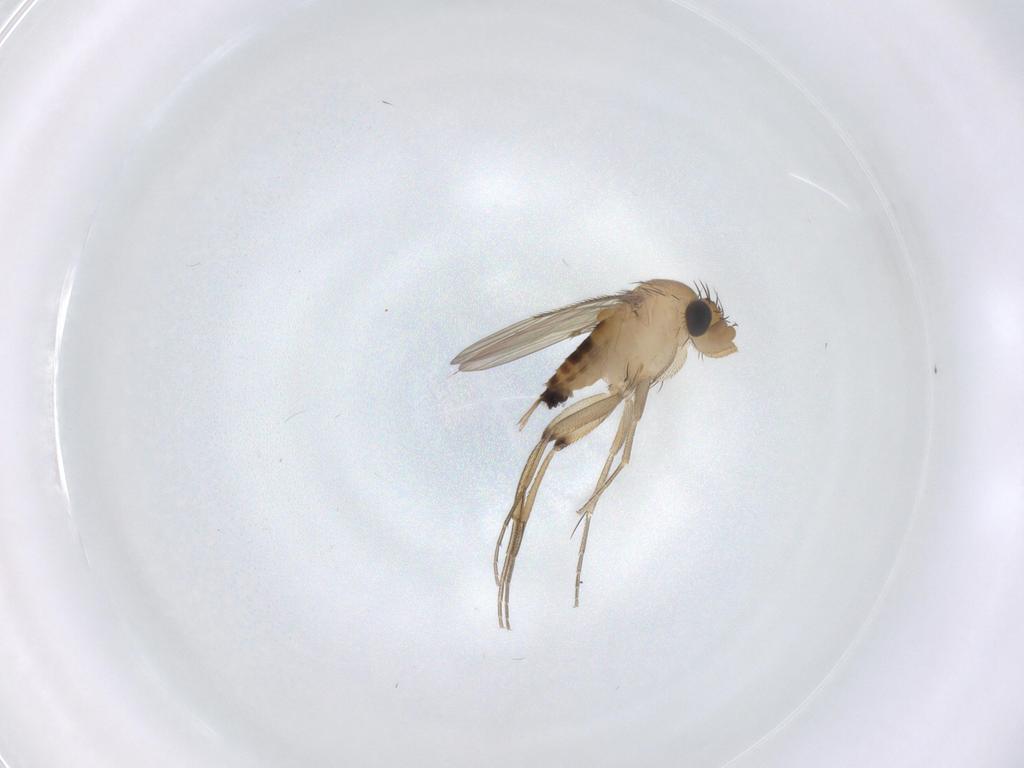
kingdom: Animalia
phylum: Arthropoda
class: Insecta
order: Diptera
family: Phoridae
